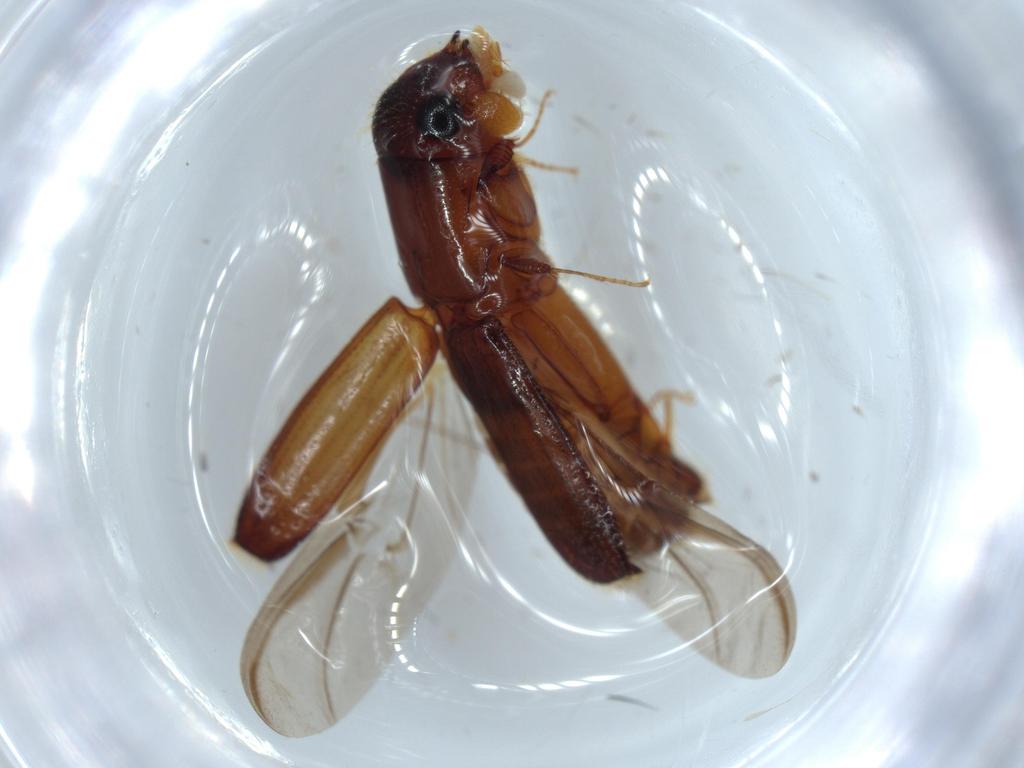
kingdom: Animalia
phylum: Arthropoda
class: Insecta
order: Coleoptera
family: Curculionidae
